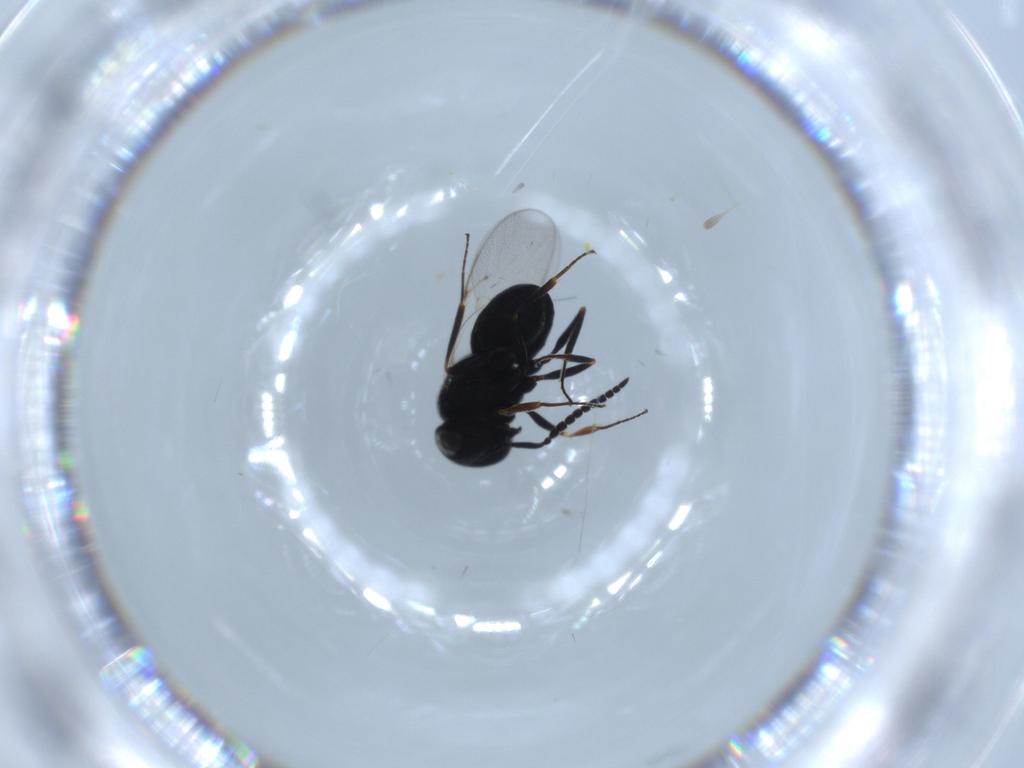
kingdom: Animalia
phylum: Arthropoda
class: Insecta
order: Hymenoptera
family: Scelionidae
